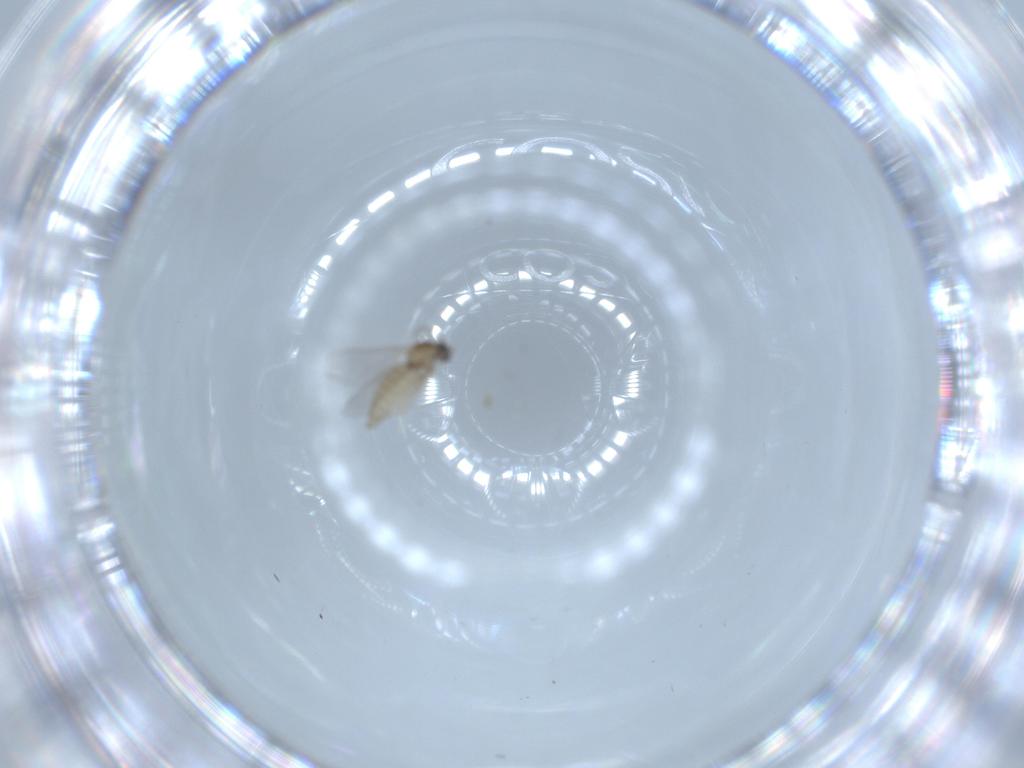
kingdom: Animalia
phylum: Arthropoda
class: Insecta
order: Diptera
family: Cecidomyiidae
